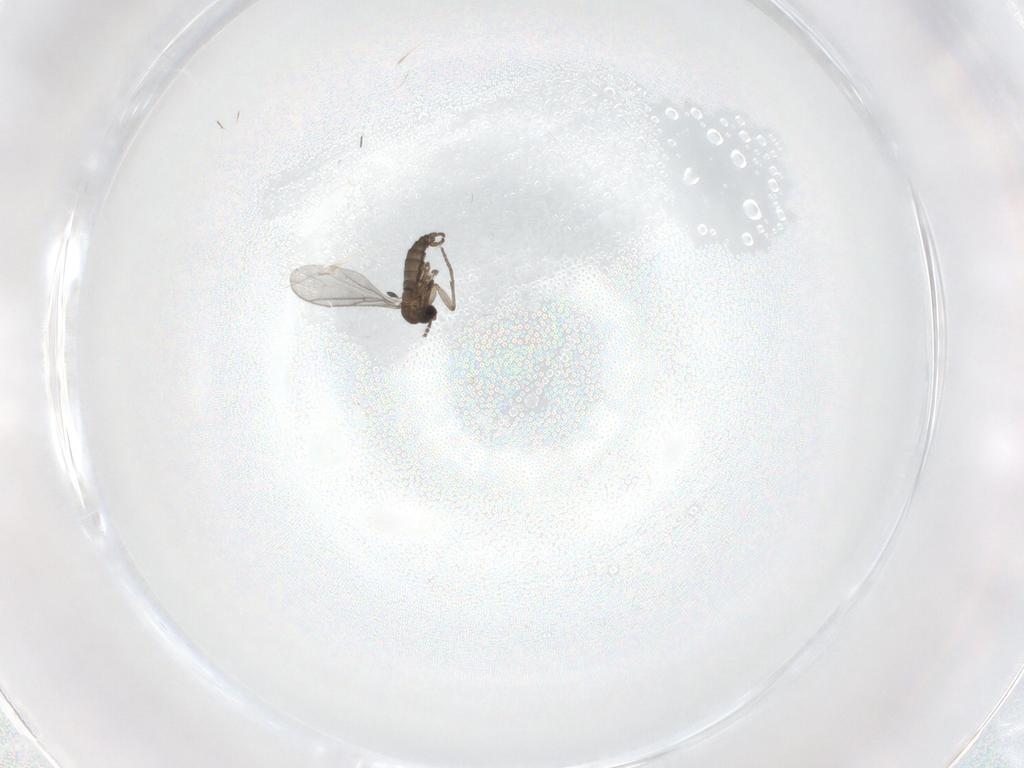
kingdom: Animalia
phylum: Arthropoda
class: Insecta
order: Diptera
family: Sciaridae
